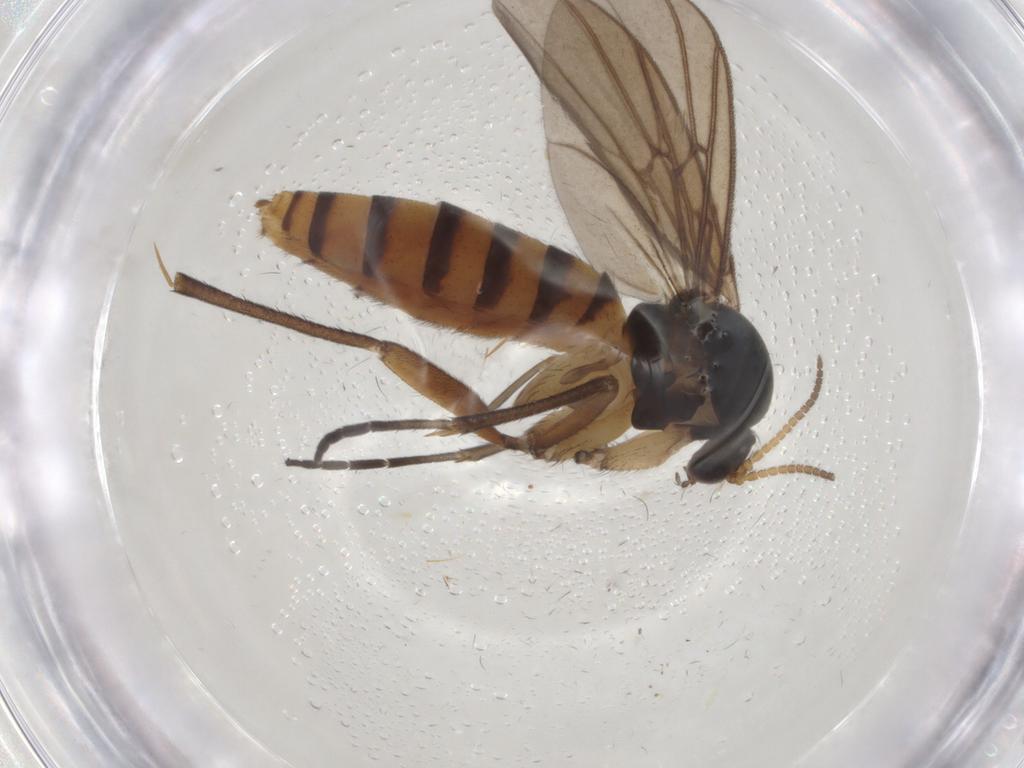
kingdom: Animalia
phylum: Arthropoda
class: Insecta
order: Diptera
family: Mycetophilidae
